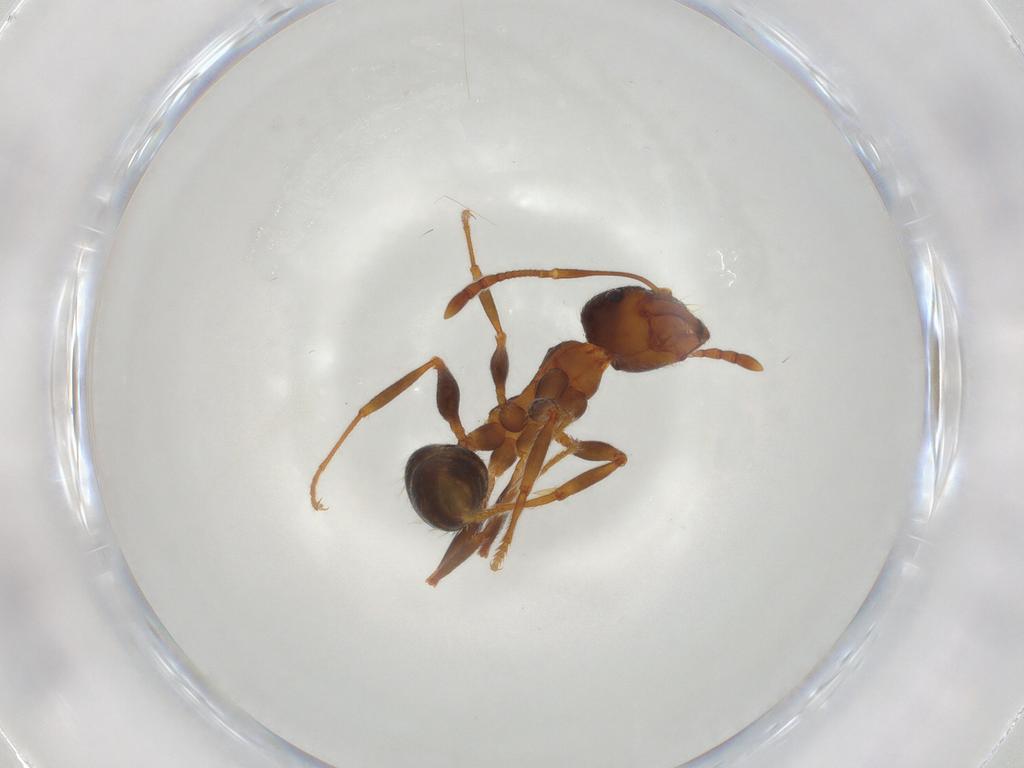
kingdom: Animalia
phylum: Arthropoda
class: Insecta
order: Hymenoptera
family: Formicidae
